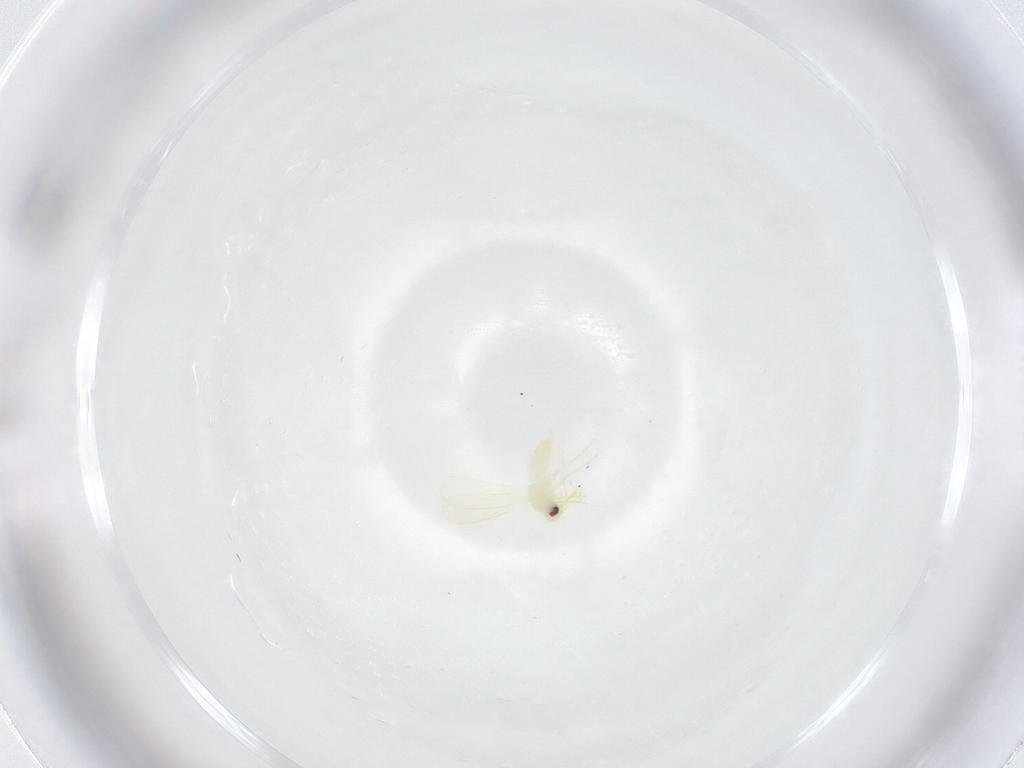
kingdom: Animalia
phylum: Arthropoda
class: Insecta
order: Hemiptera
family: Aleyrodidae
